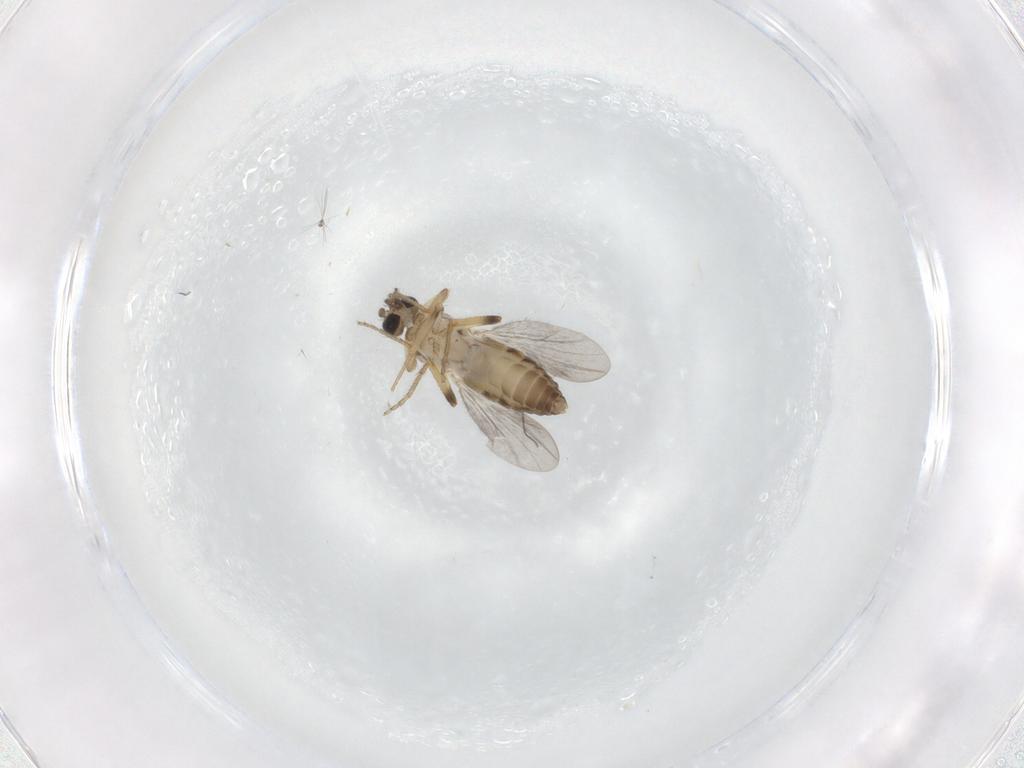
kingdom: Animalia
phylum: Arthropoda
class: Insecta
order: Diptera
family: Ceratopogonidae
